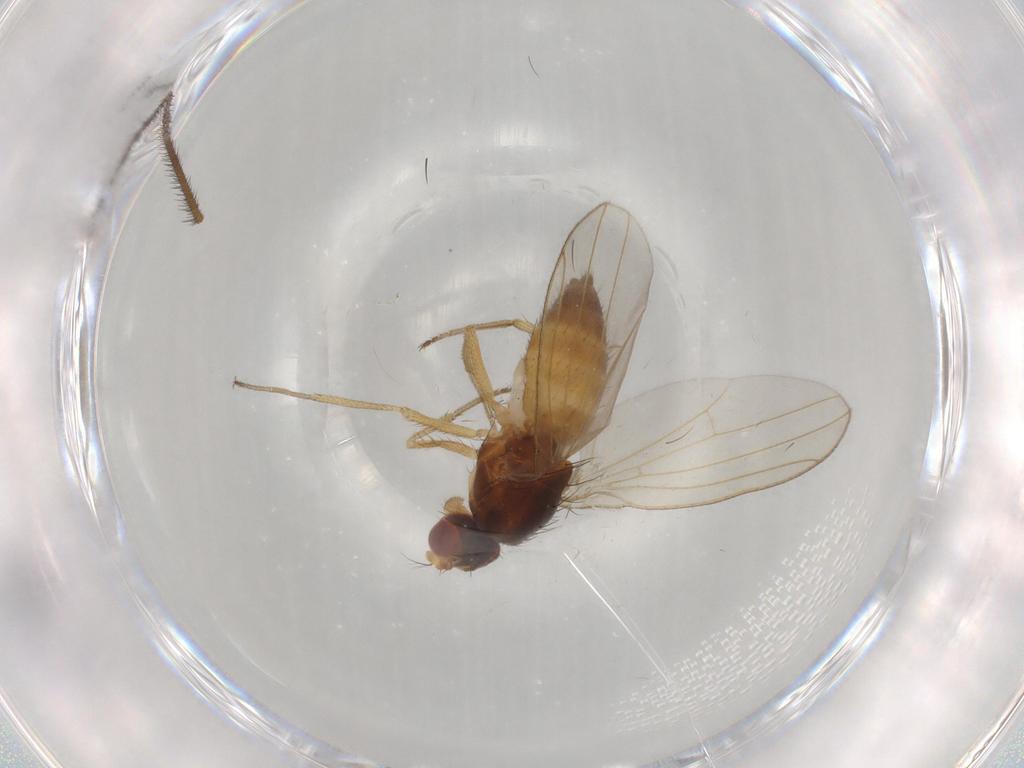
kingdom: Animalia
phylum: Arthropoda
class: Insecta
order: Diptera
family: Drosophilidae
